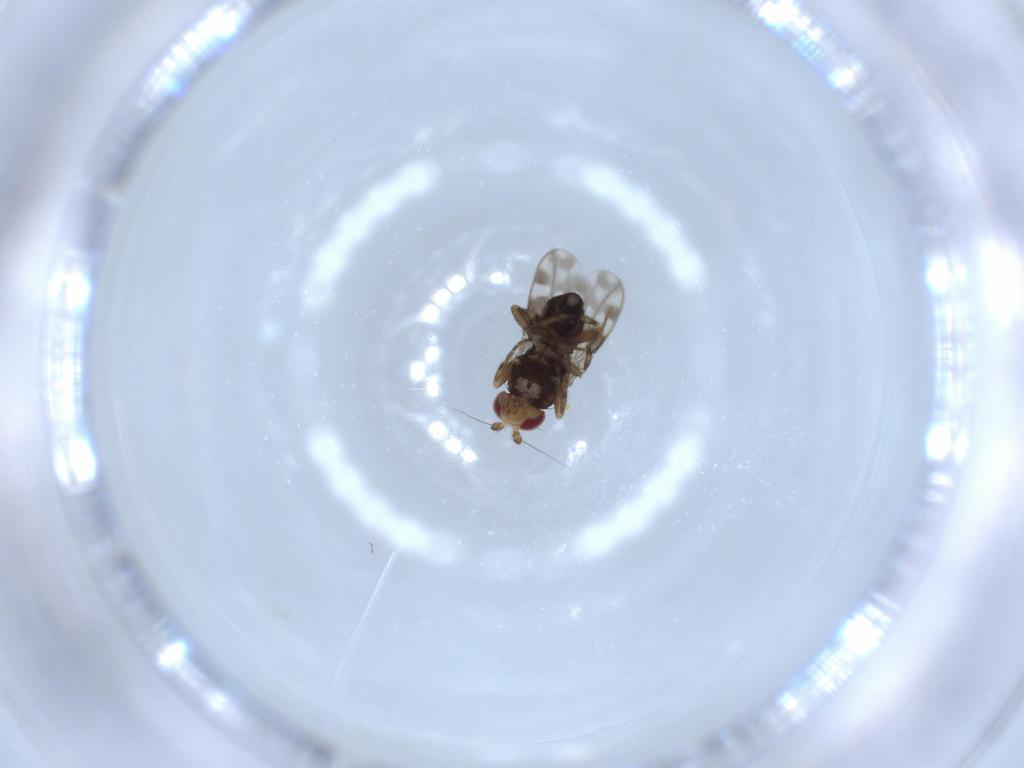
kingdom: Animalia
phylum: Arthropoda
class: Insecta
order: Diptera
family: Sphaeroceridae
